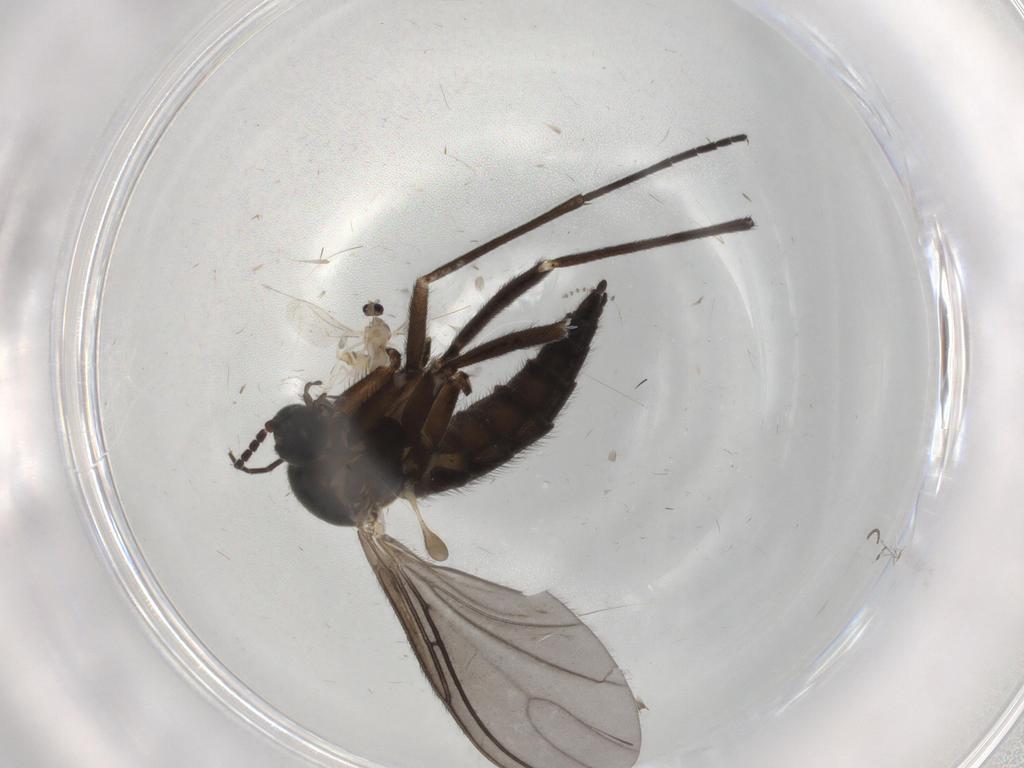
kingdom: Animalia
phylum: Arthropoda
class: Insecta
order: Diptera
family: Cecidomyiidae
